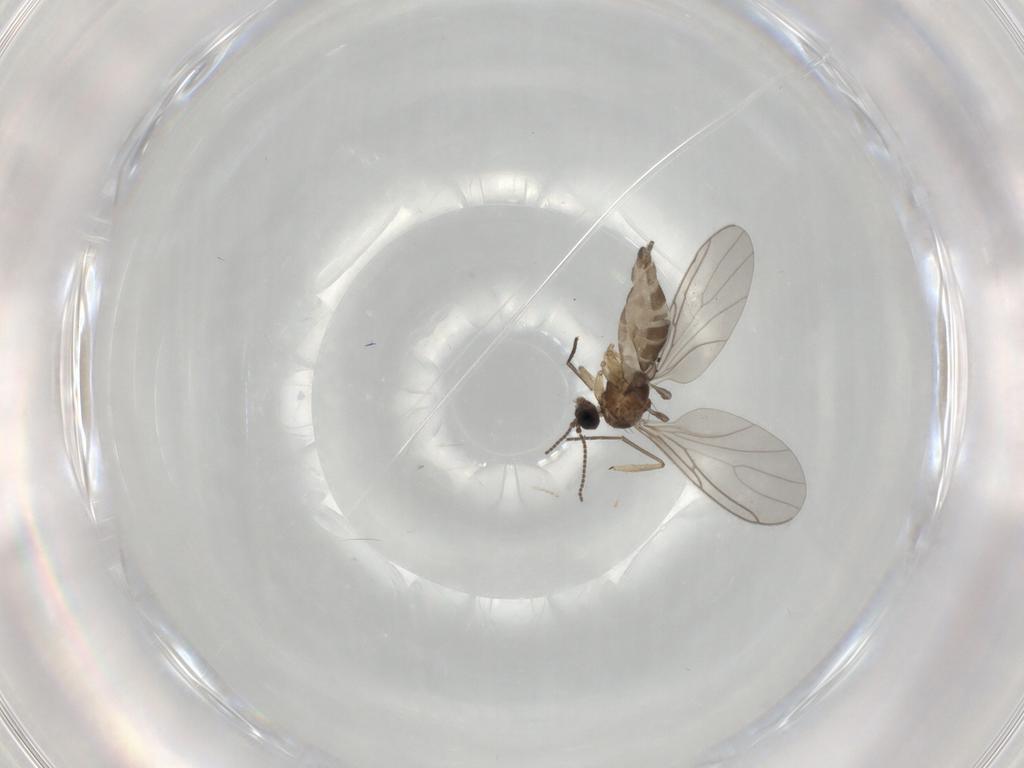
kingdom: Animalia
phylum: Arthropoda
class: Insecta
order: Diptera
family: Sciaridae
